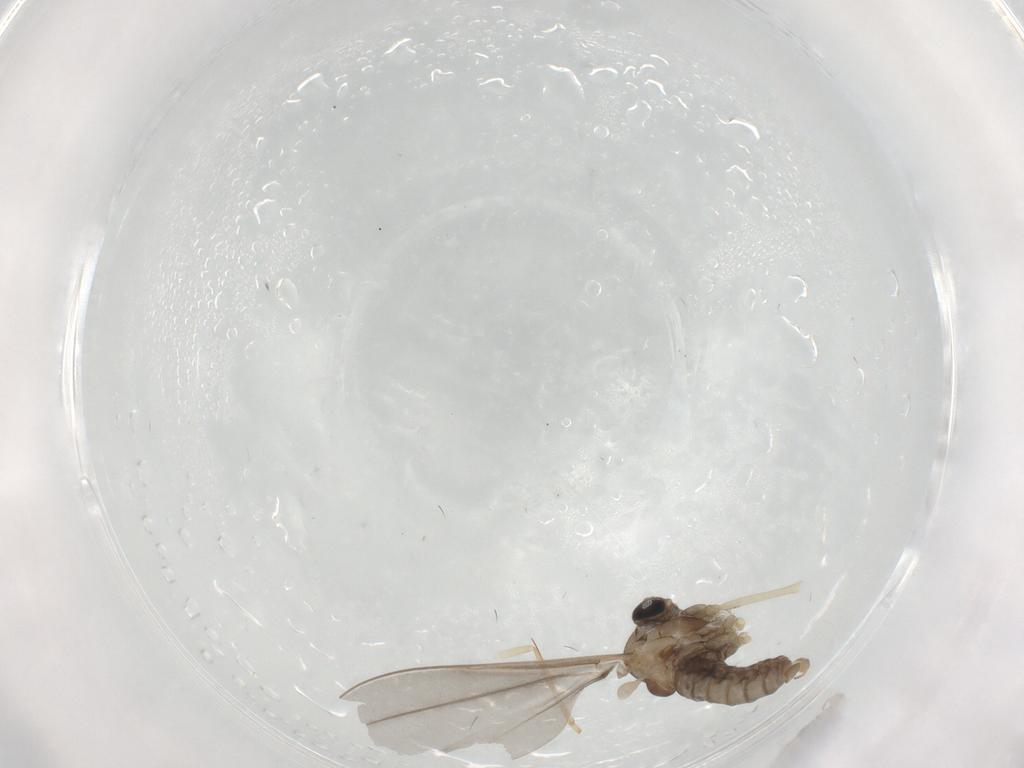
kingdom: Animalia
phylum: Arthropoda
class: Insecta
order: Diptera
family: Cecidomyiidae
